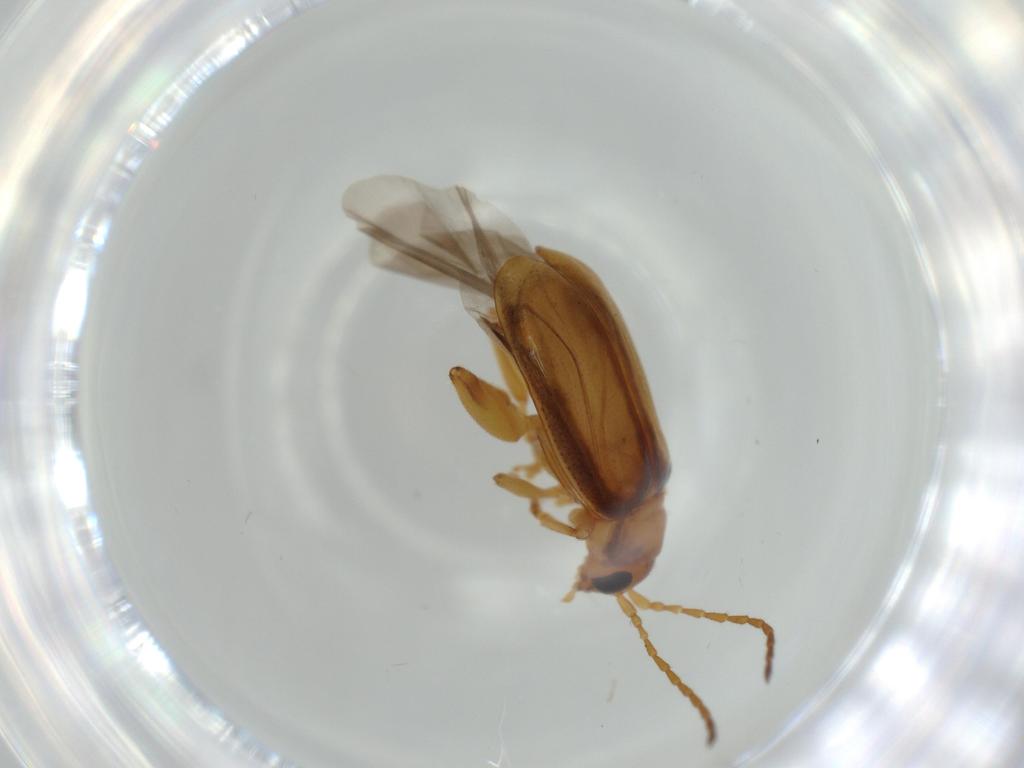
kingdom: Animalia
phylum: Arthropoda
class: Insecta
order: Coleoptera
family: Chrysomelidae
